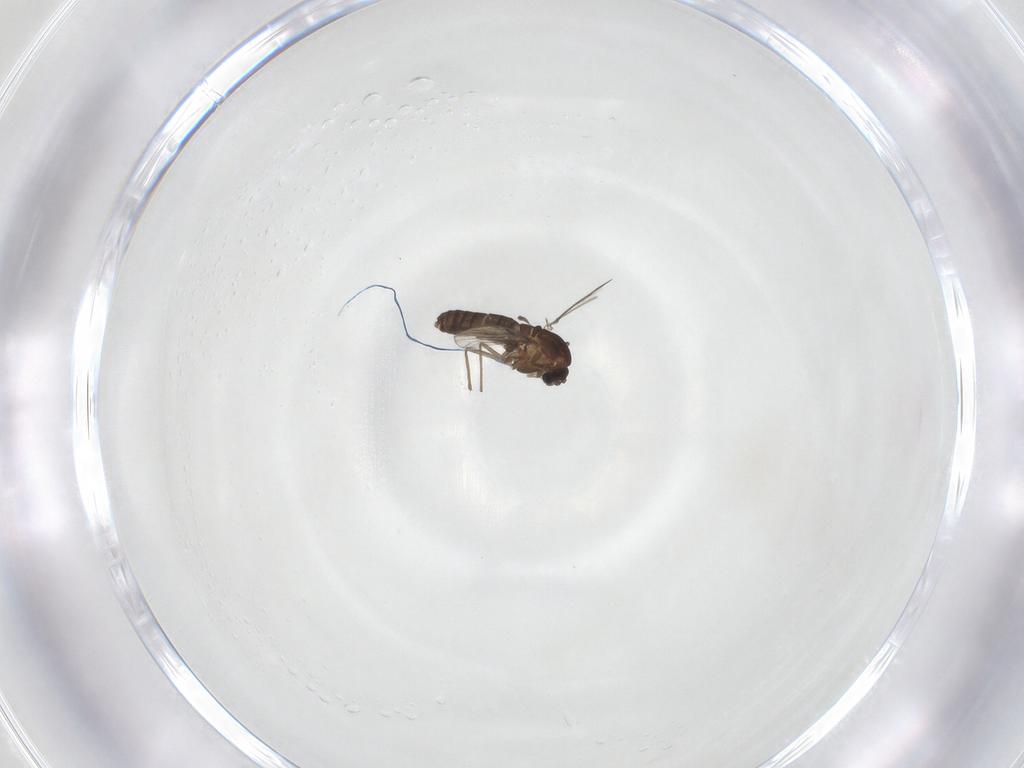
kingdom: Animalia
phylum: Arthropoda
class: Insecta
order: Diptera
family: Chironomidae
